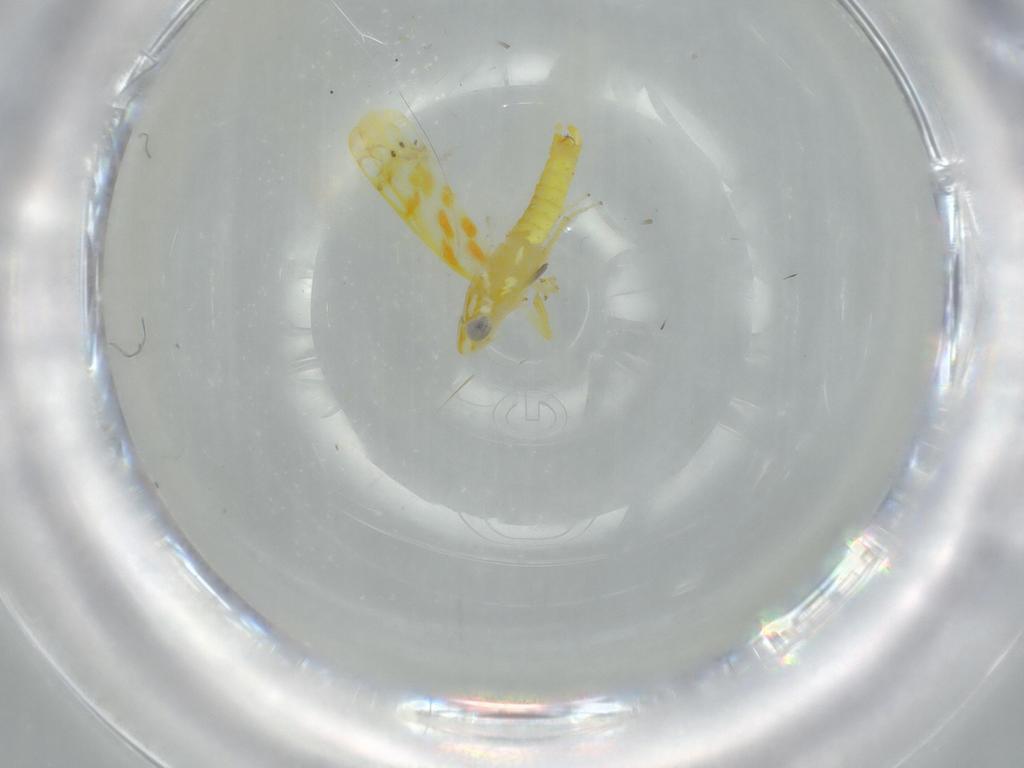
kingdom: Animalia
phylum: Arthropoda
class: Insecta
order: Hemiptera
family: Cicadellidae
